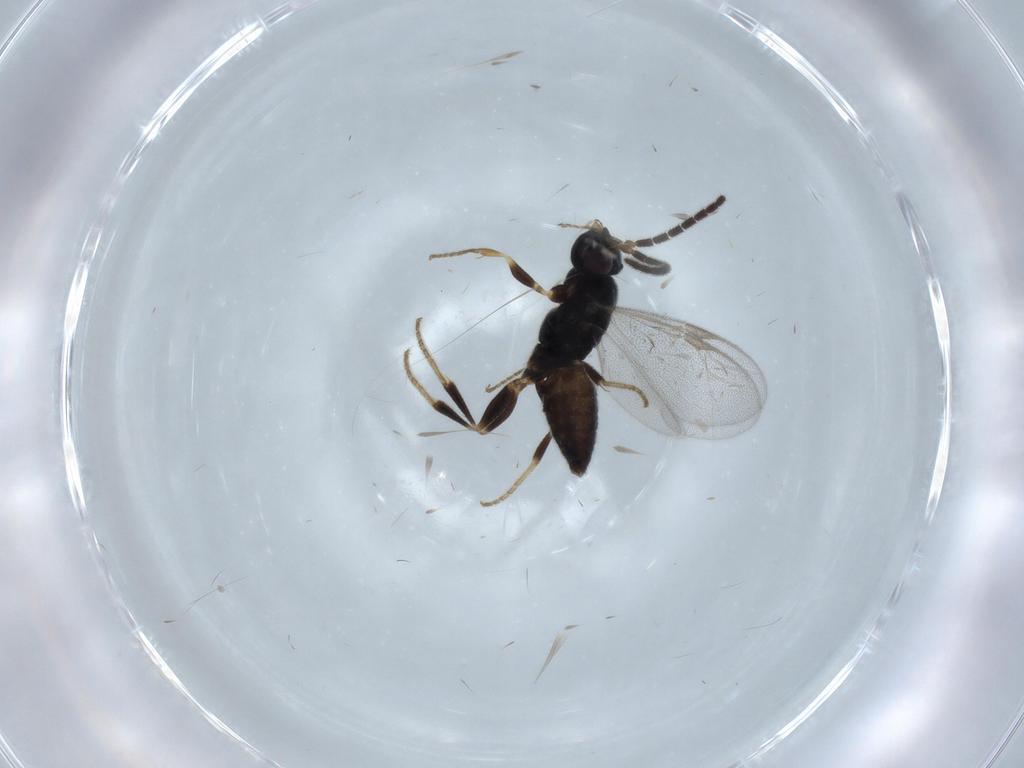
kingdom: Animalia
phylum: Arthropoda
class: Insecta
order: Hymenoptera
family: Dryinidae
